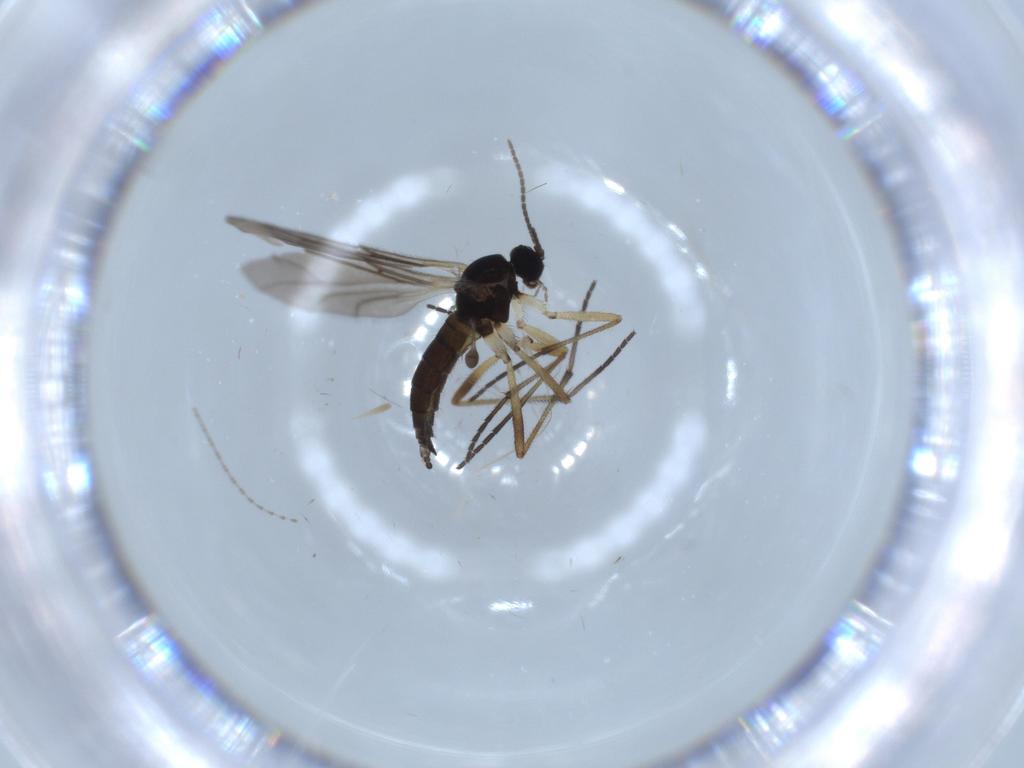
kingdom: Animalia
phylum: Arthropoda
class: Insecta
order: Diptera
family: Sciaridae
